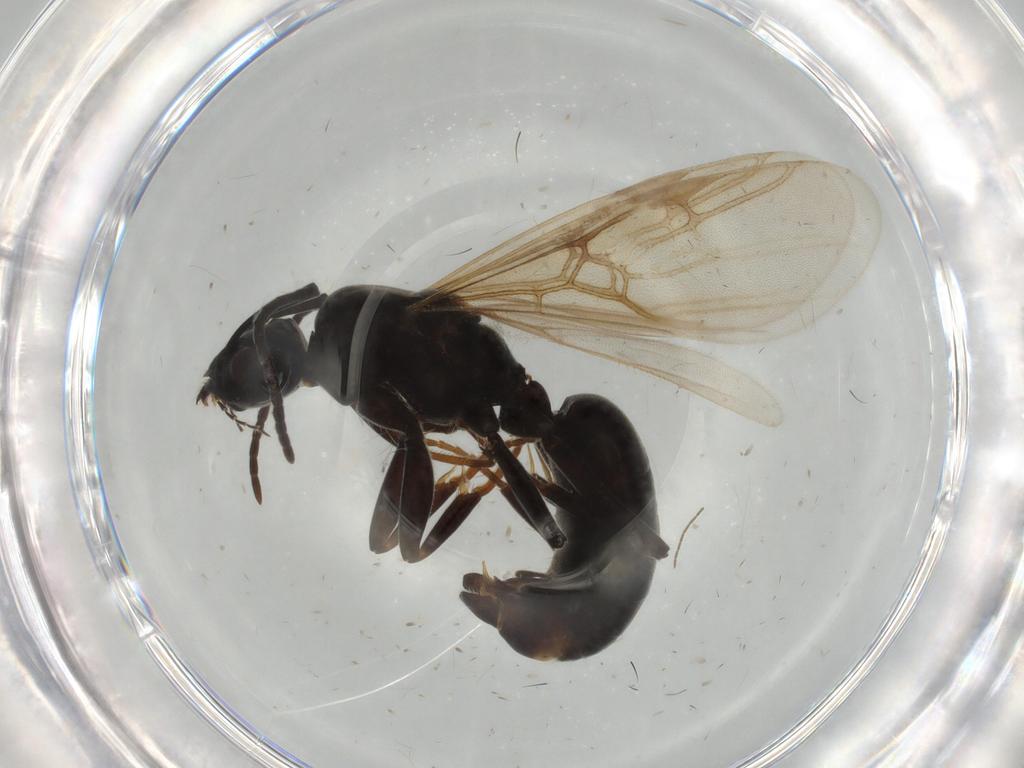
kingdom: Animalia
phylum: Arthropoda
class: Insecta
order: Hymenoptera
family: Formicidae
